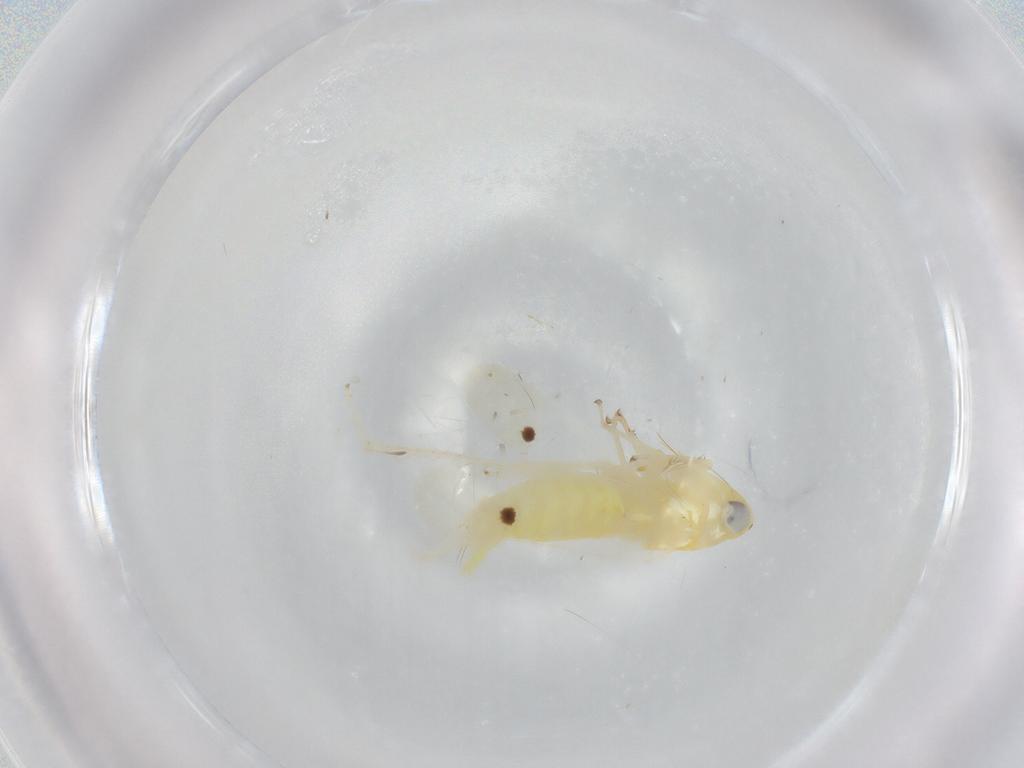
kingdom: Animalia
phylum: Arthropoda
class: Insecta
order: Hemiptera
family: Cicadellidae
